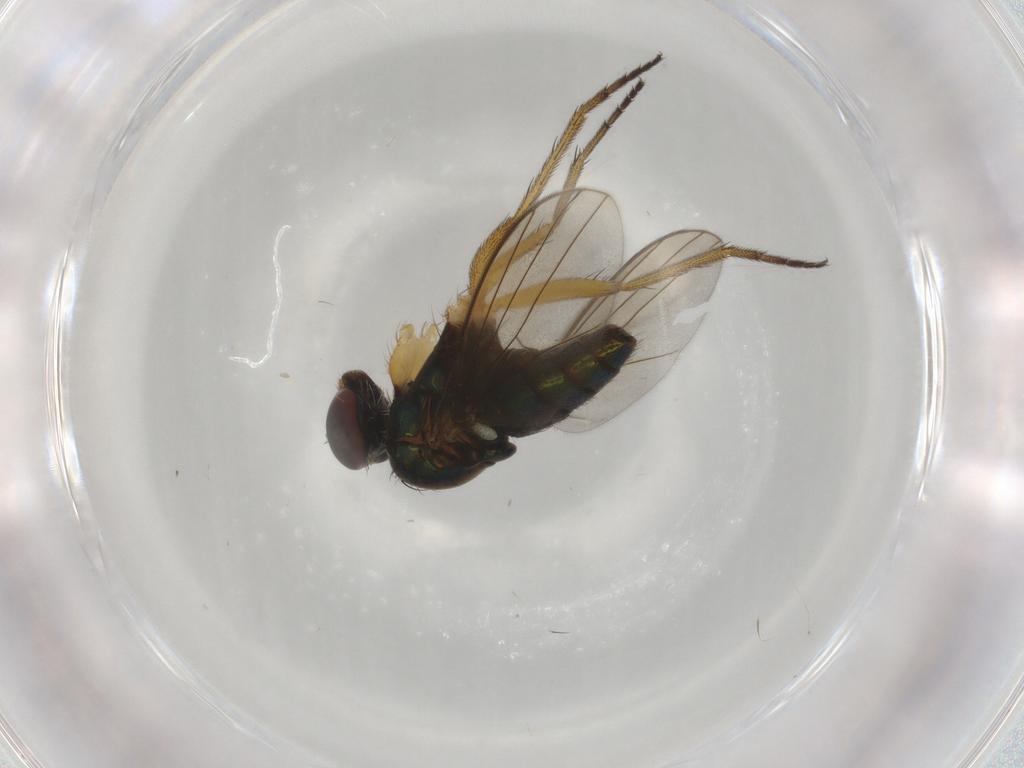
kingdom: Animalia
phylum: Arthropoda
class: Insecta
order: Diptera
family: Dolichopodidae
